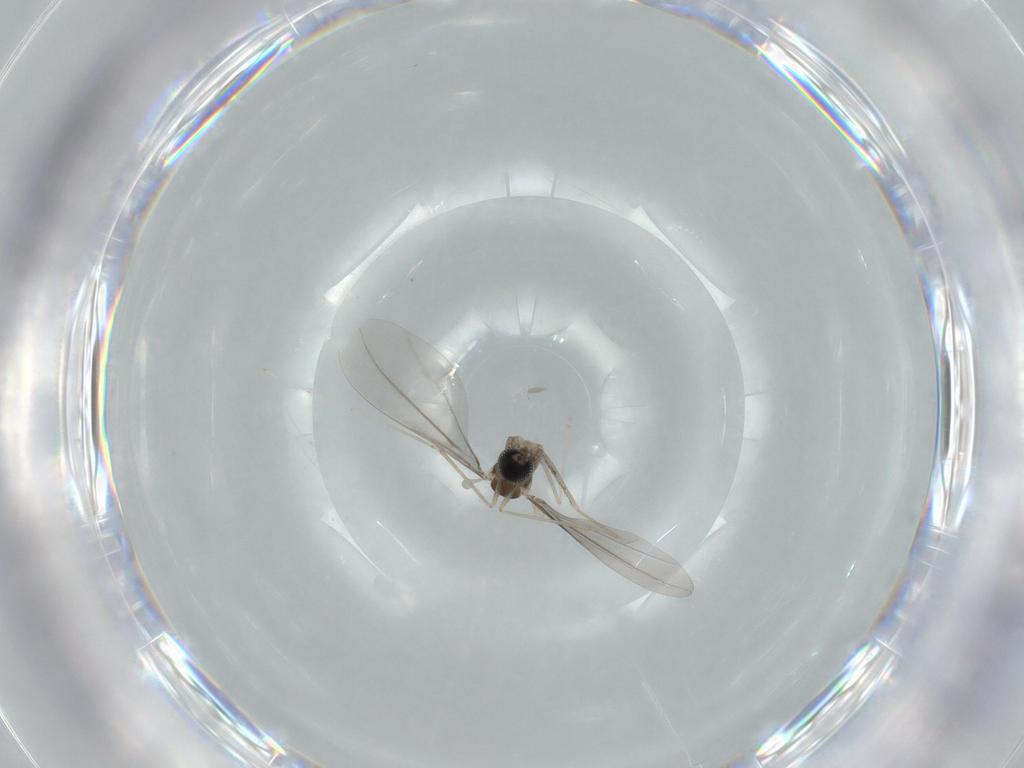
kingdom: Animalia
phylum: Arthropoda
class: Insecta
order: Diptera
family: Cecidomyiidae
